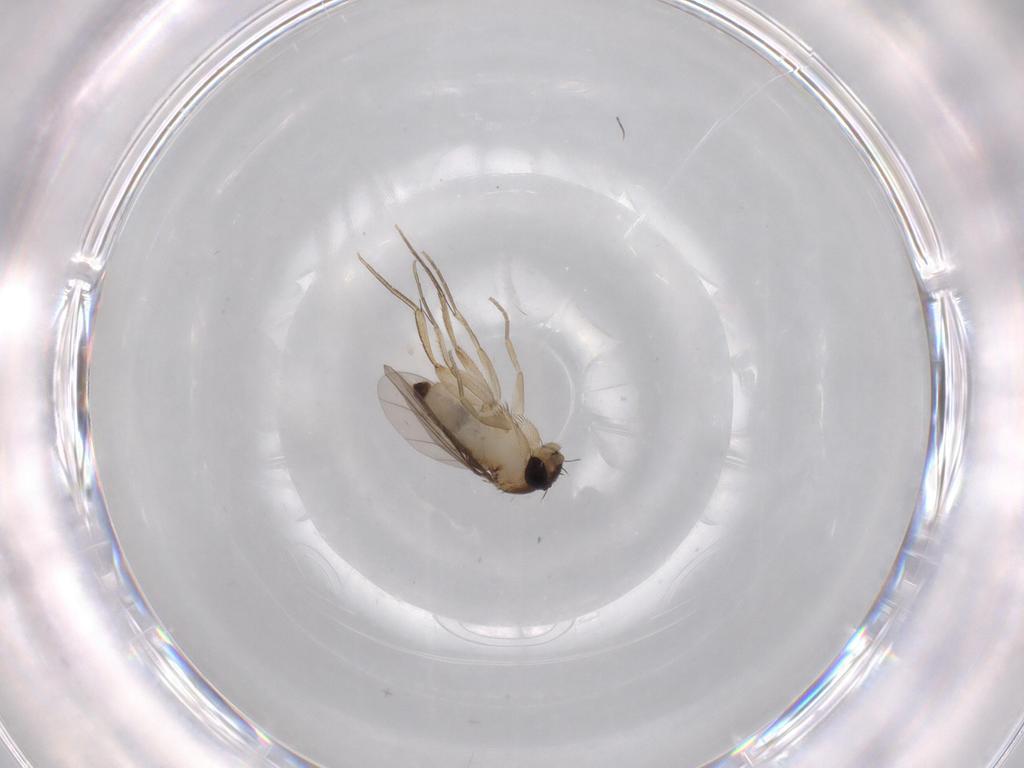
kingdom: Animalia
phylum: Arthropoda
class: Insecta
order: Diptera
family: Phoridae
